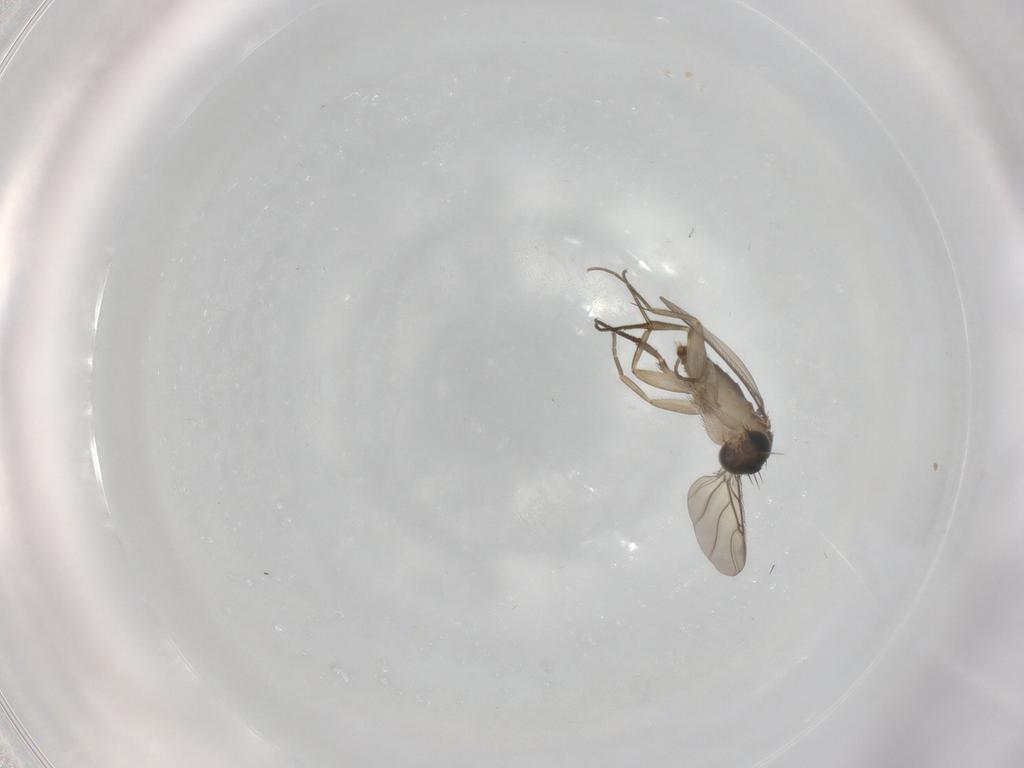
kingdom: Animalia
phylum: Arthropoda
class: Insecta
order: Diptera
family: Phoridae
